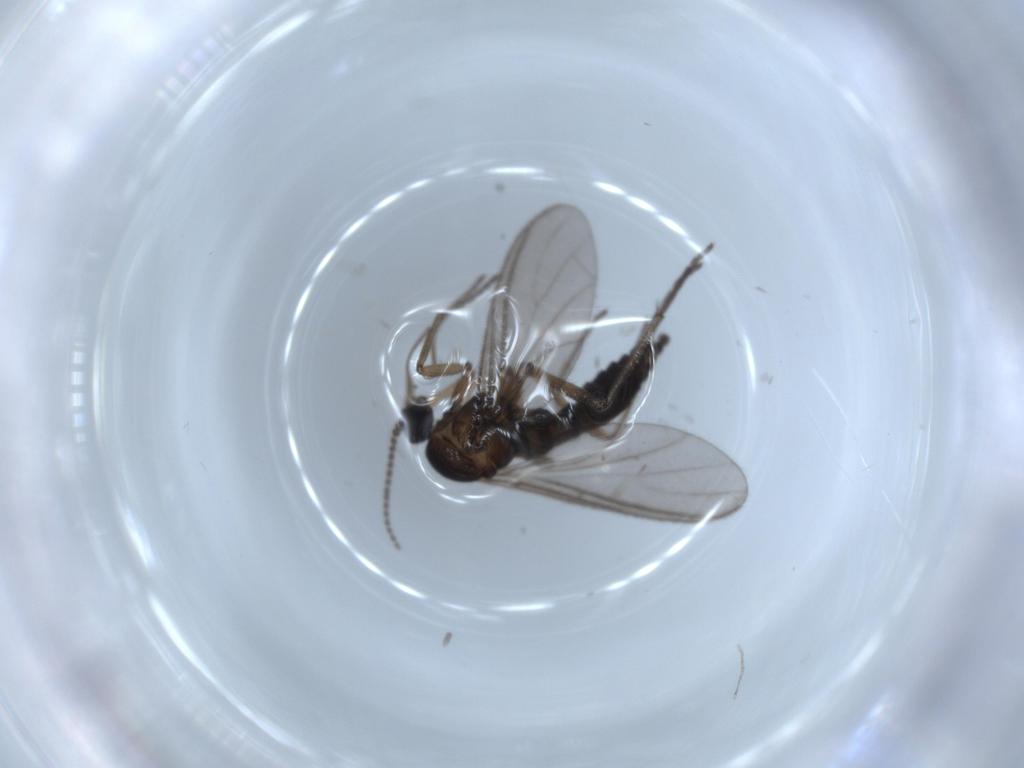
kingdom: Animalia
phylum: Arthropoda
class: Insecta
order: Diptera
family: Sciaridae
